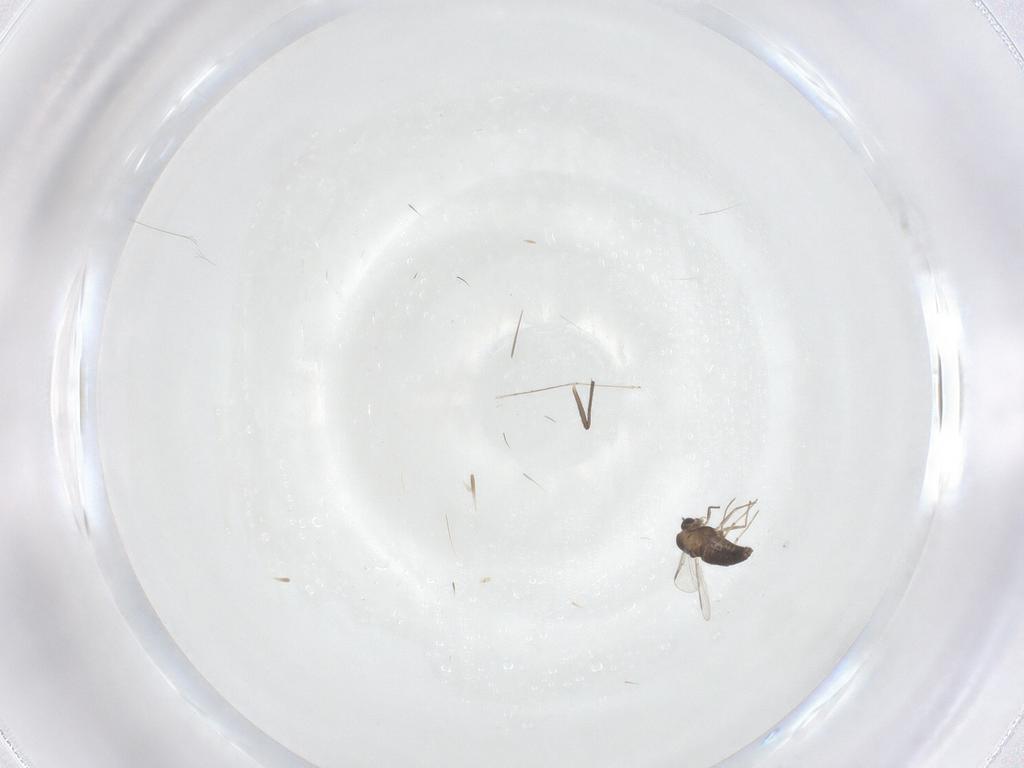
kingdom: Animalia
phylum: Arthropoda
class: Insecta
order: Diptera
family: Chironomidae
